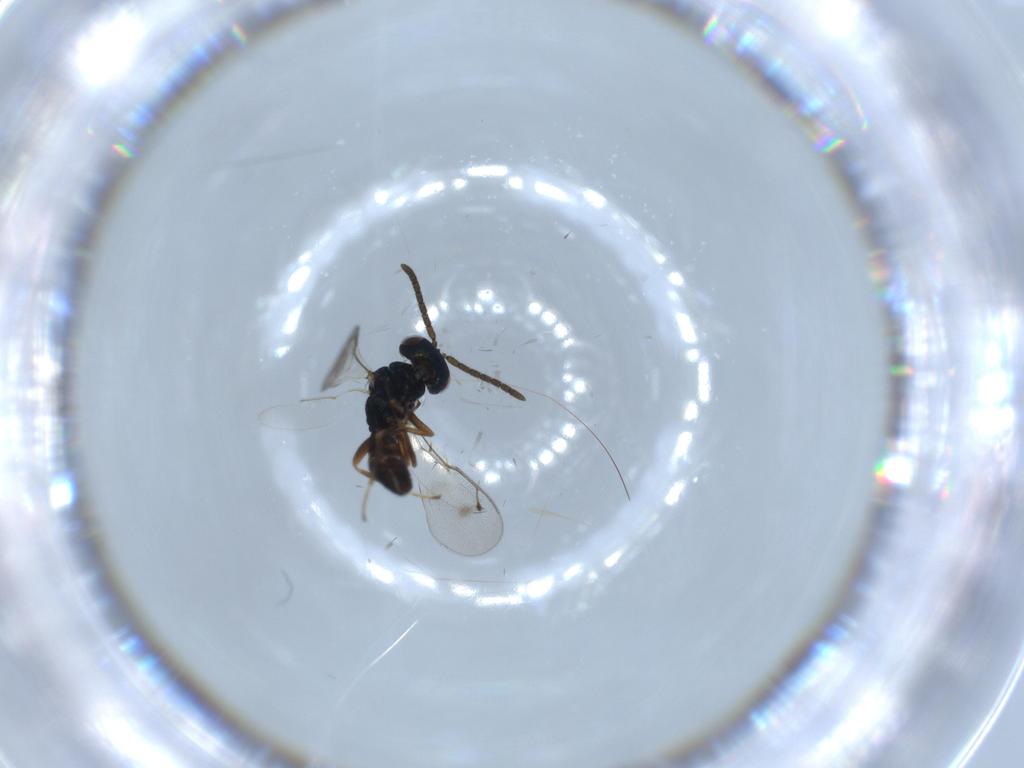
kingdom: Animalia
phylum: Arthropoda
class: Insecta
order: Hymenoptera
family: Pteromalidae
